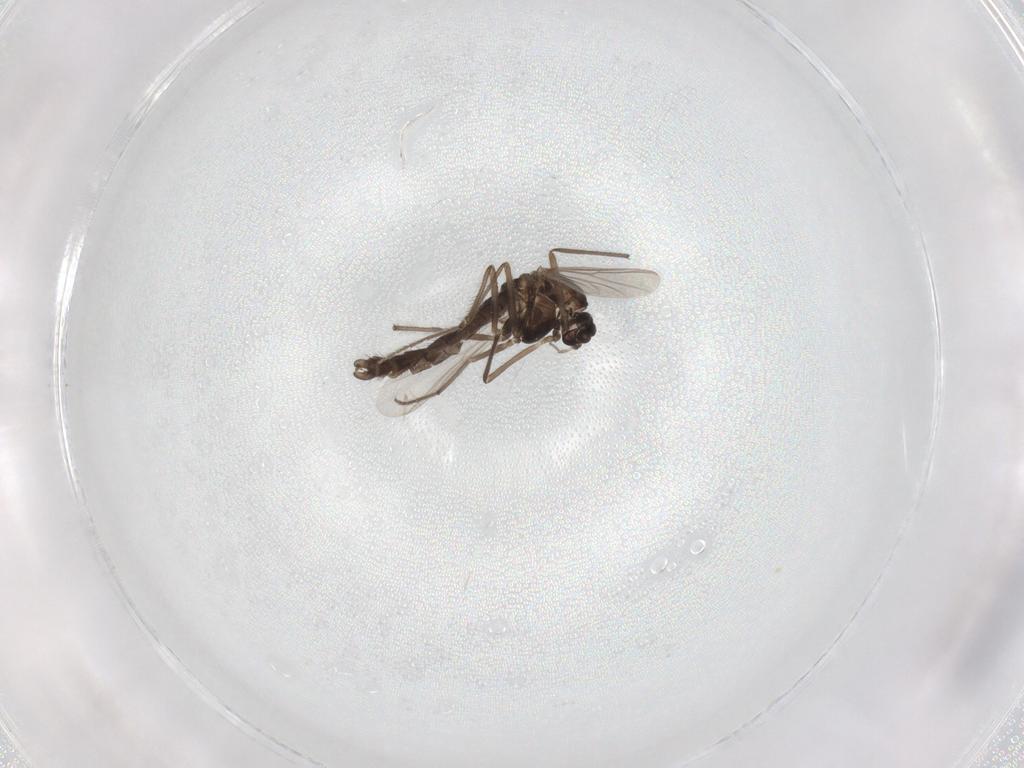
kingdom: Animalia
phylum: Arthropoda
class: Insecta
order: Diptera
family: Chironomidae
